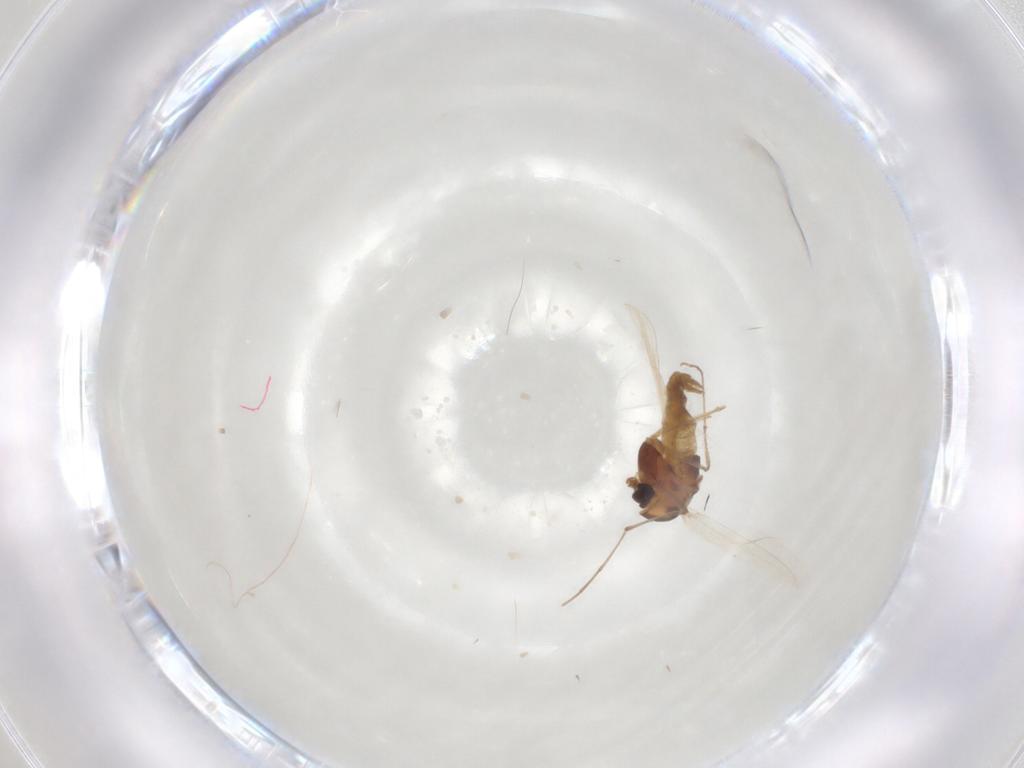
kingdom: Animalia
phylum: Arthropoda
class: Insecta
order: Diptera
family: Chironomidae
